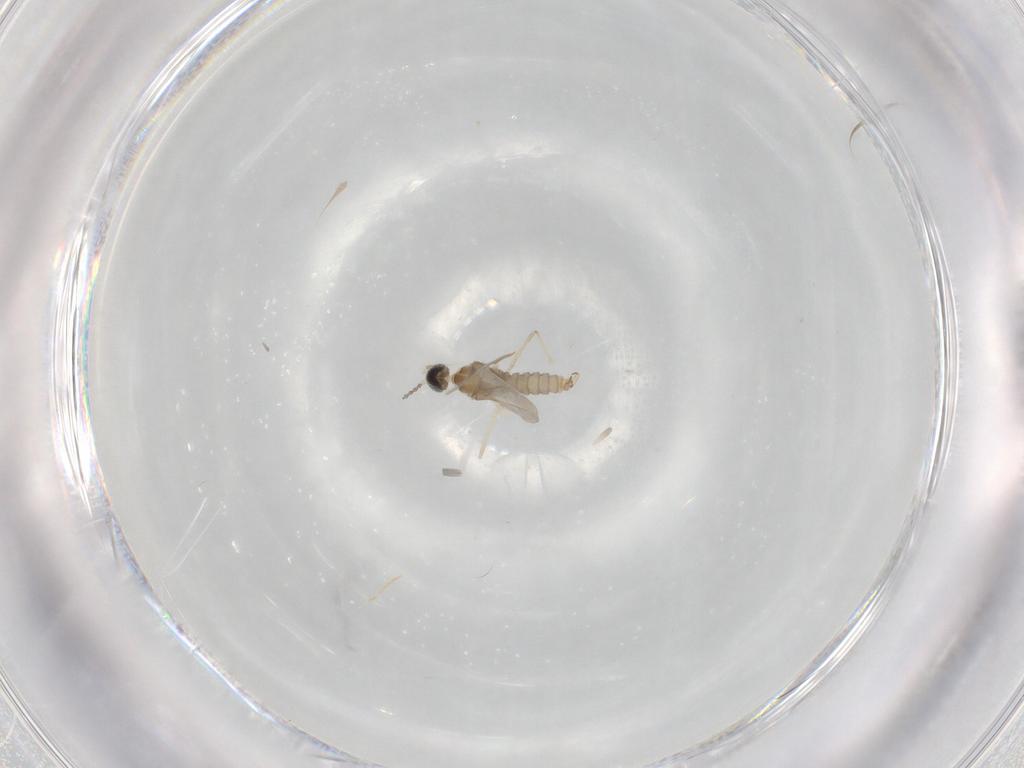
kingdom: Animalia
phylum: Arthropoda
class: Insecta
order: Diptera
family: Cecidomyiidae
